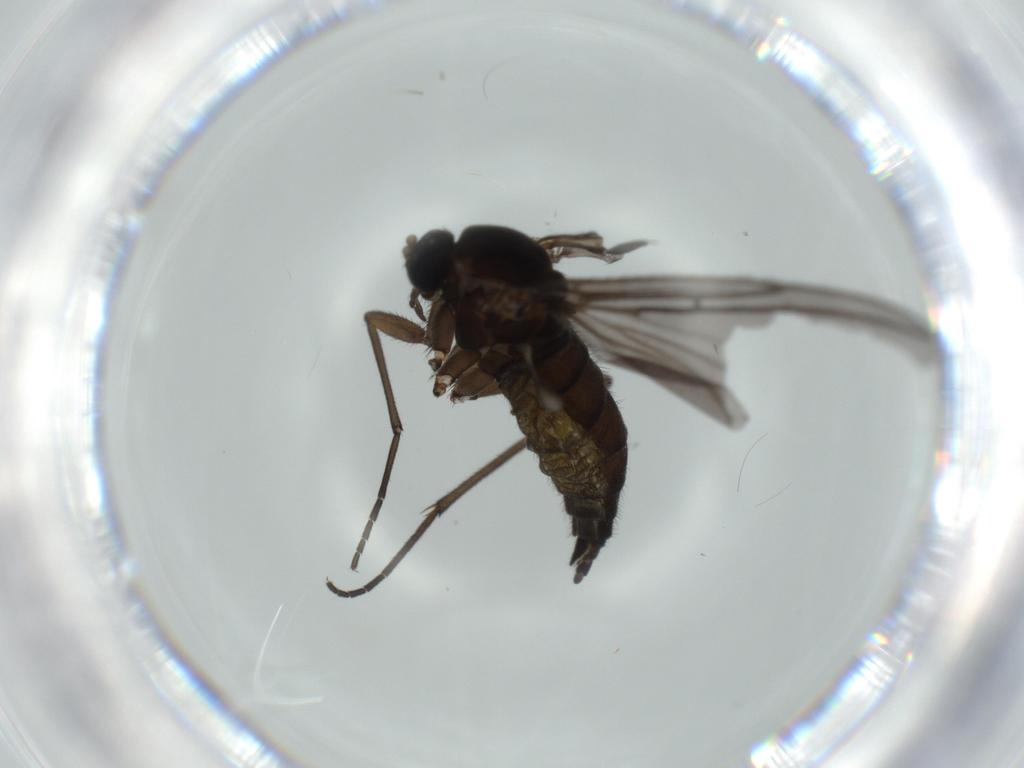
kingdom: Animalia
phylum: Arthropoda
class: Insecta
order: Diptera
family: Sciaridae
